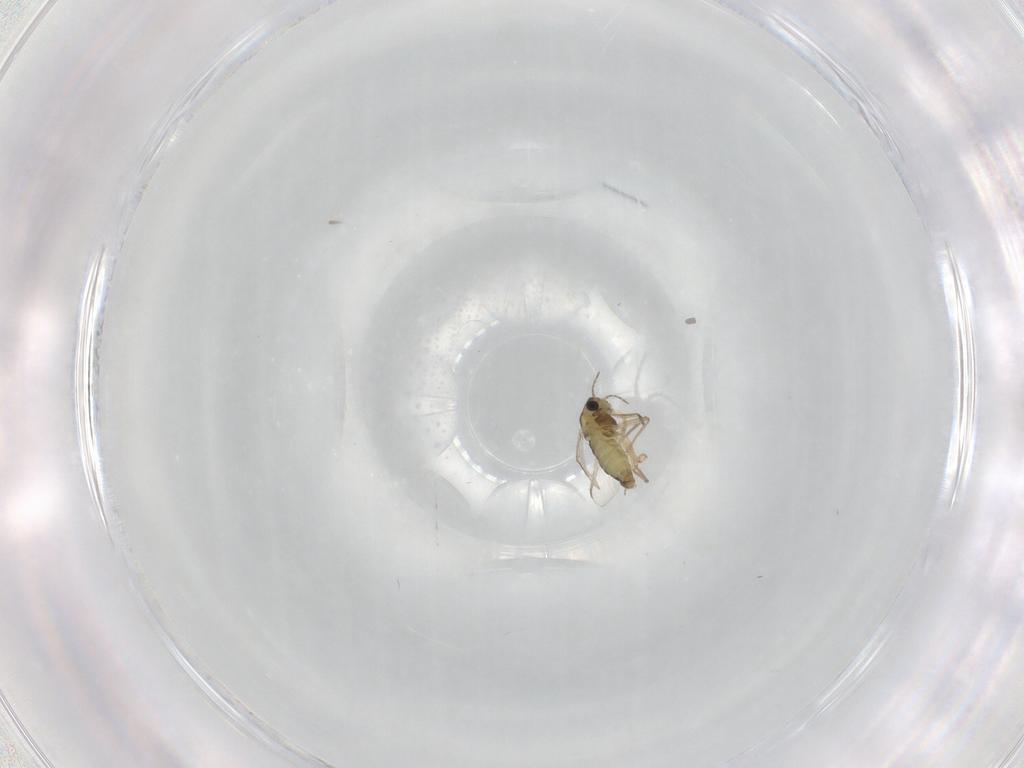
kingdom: Animalia
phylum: Arthropoda
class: Insecta
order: Diptera
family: Chironomidae
